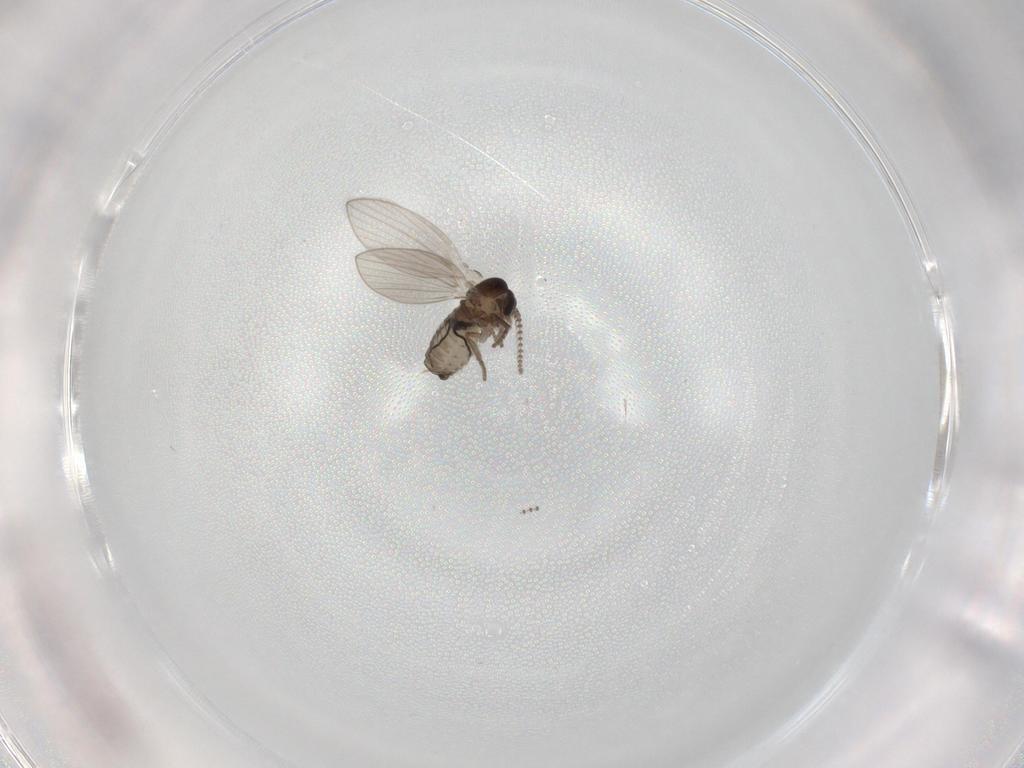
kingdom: Animalia
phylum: Arthropoda
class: Insecta
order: Diptera
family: Psychodidae
